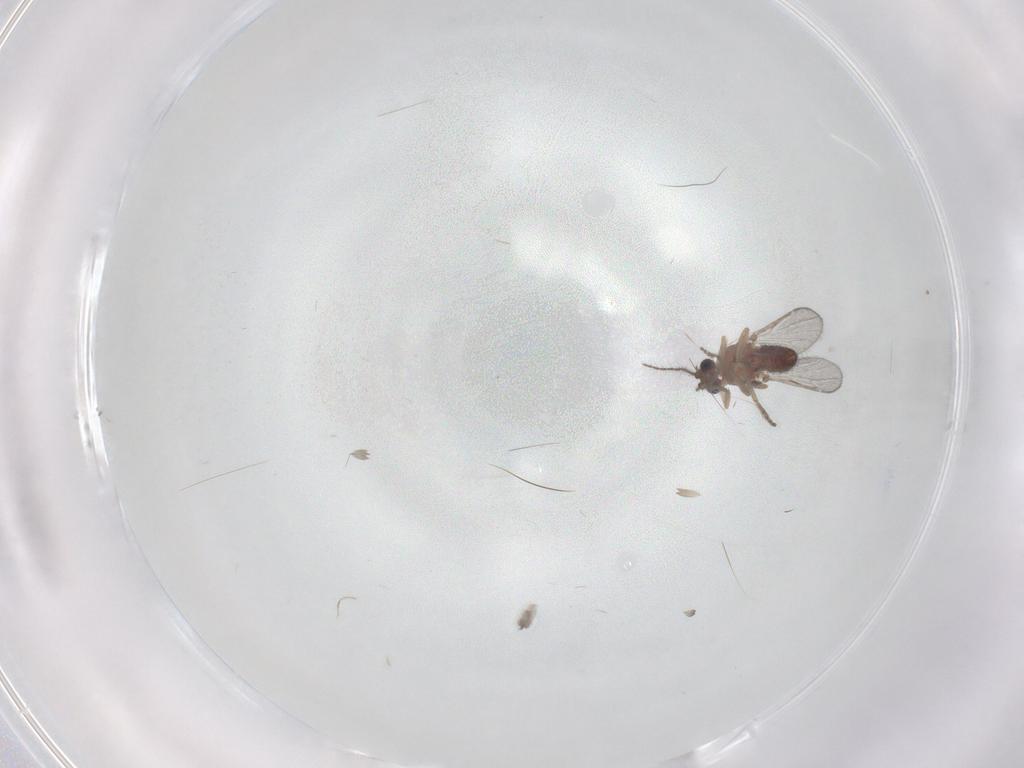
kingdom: Animalia
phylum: Arthropoda
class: Insecta
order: Diptera
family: Ceratopogonidae
